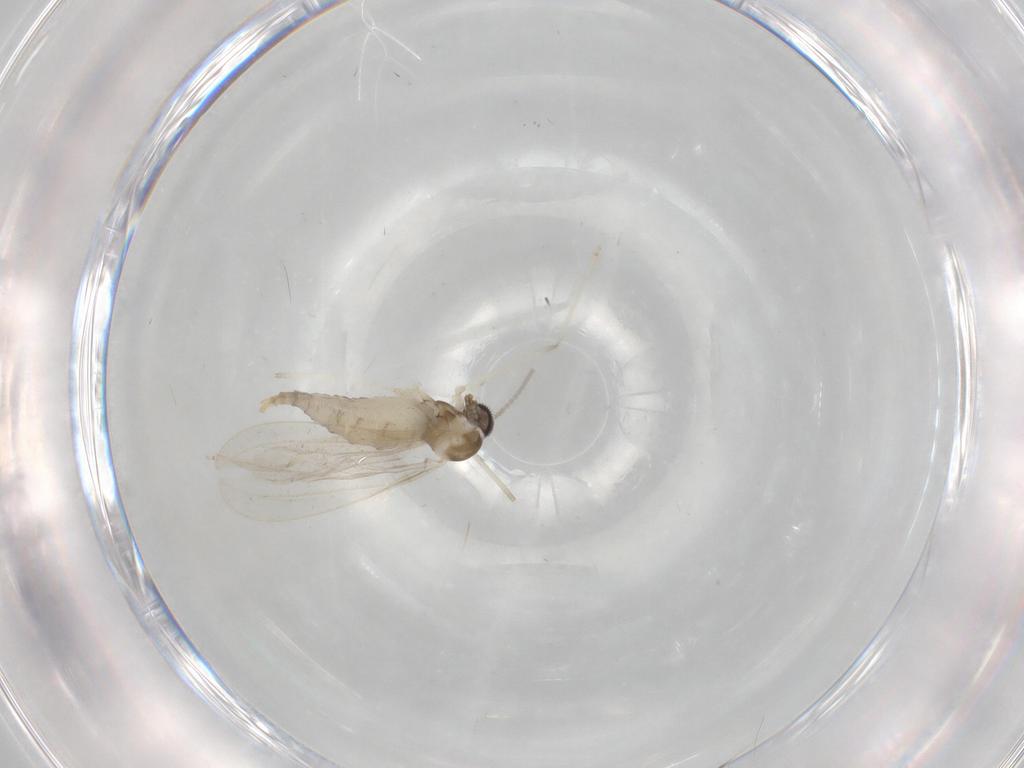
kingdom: Animalia
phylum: Arthropoda
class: Insecta
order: Diptera
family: Cecidomyiidae
